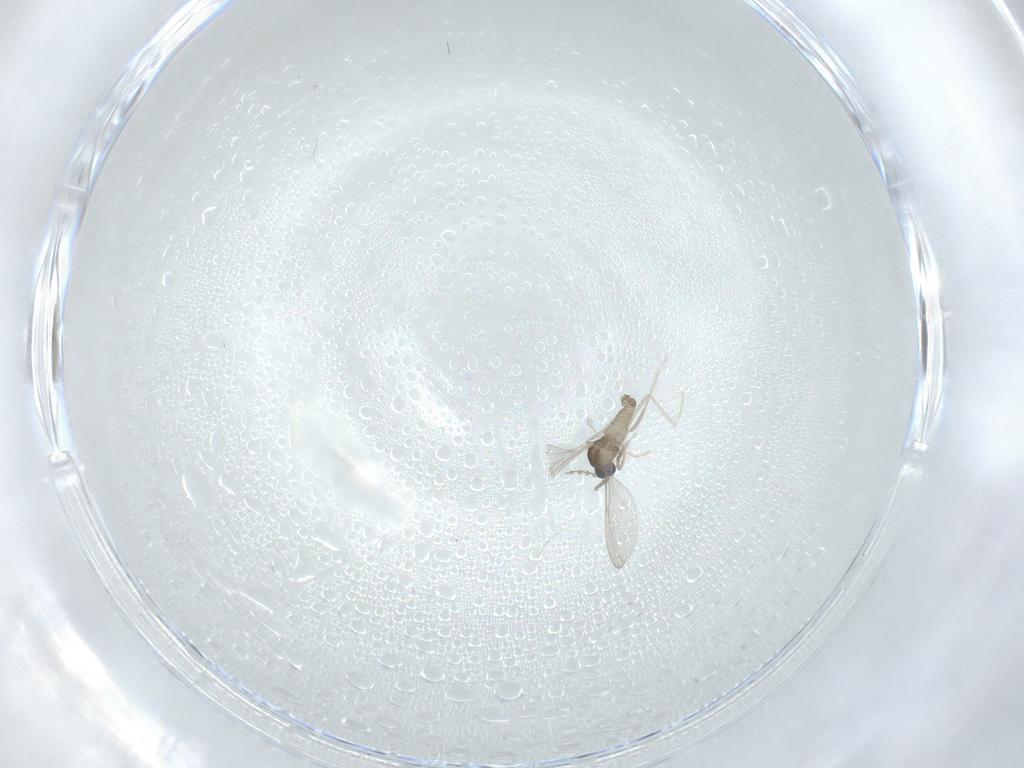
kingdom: Animalia
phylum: Arthropoda
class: Insecta
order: Diptera
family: Cecidomyiidae
